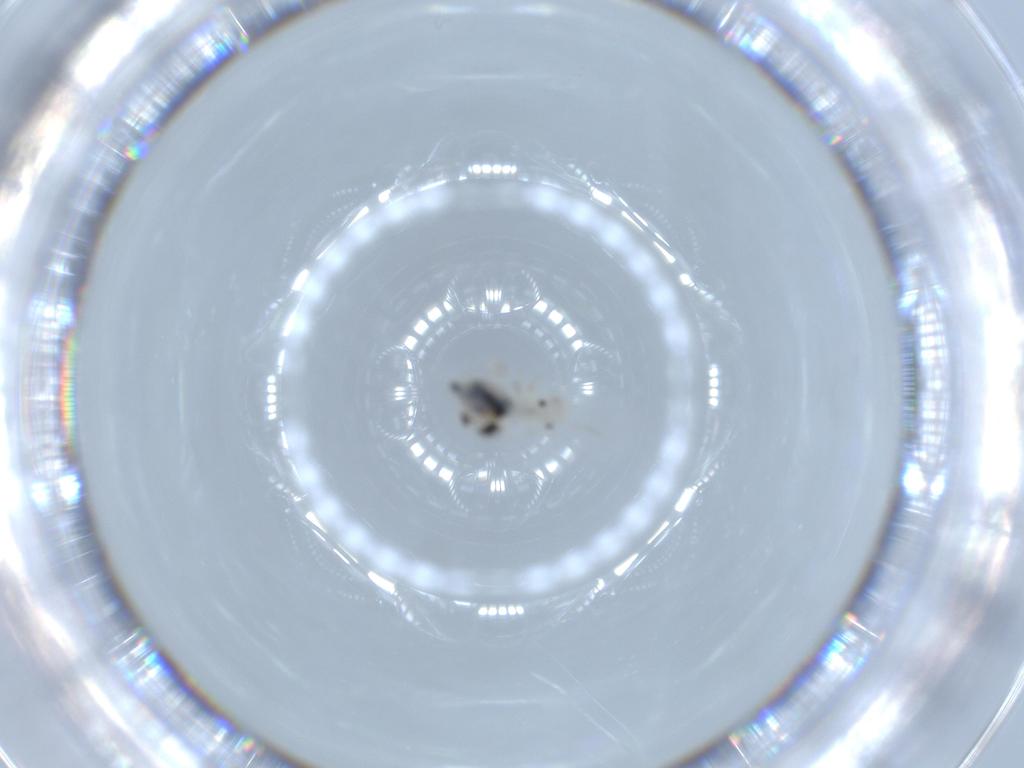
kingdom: Animalia
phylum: Arthropoda
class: Insecta
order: Psocodea
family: Caeciliusidae
